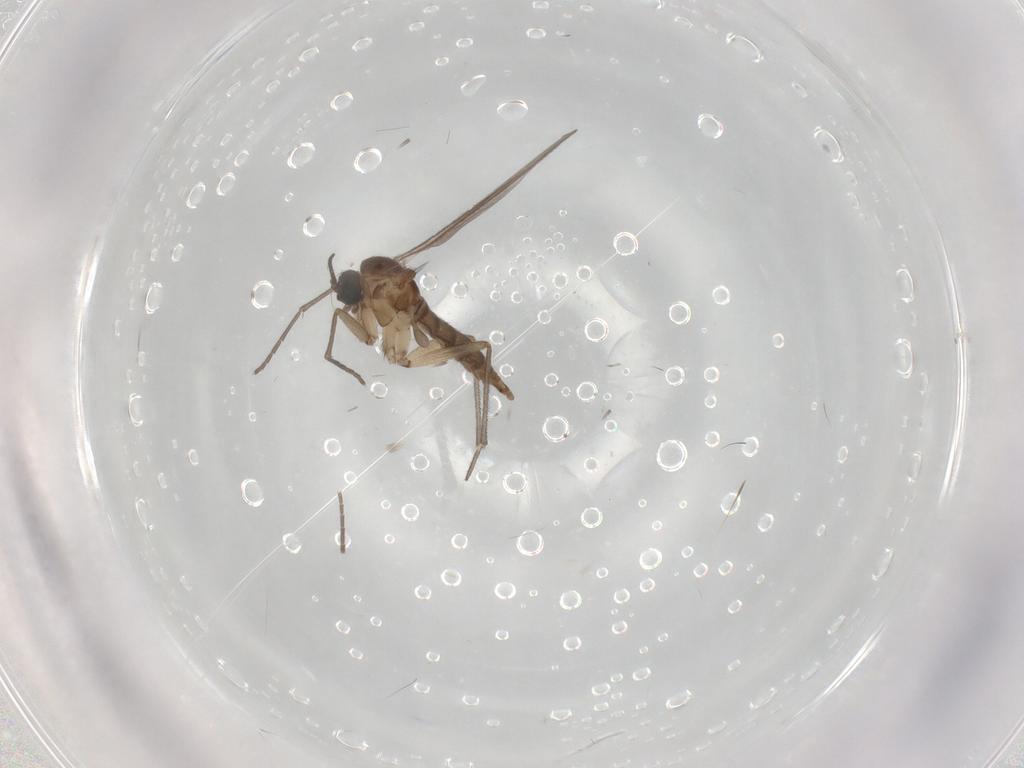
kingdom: Animalia
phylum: Arthropoda
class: Insecta
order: Diptera
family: Sciaridae
